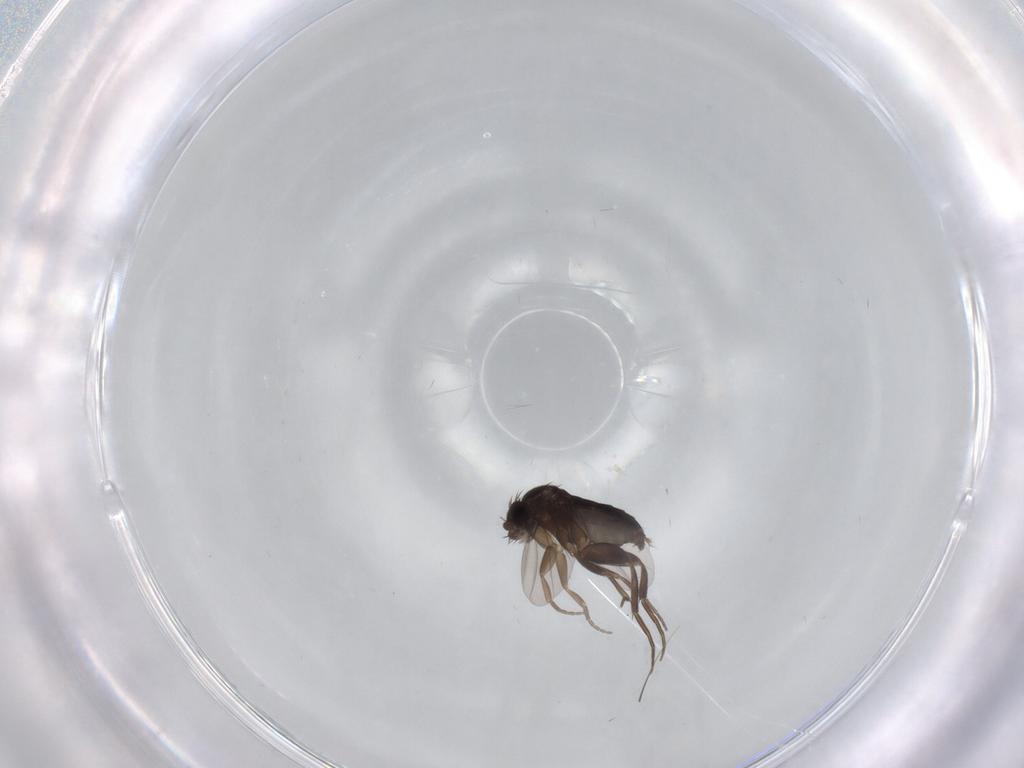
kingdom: Animalia
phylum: Arthropoda
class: Insecta
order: Diptera
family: Phoridae
